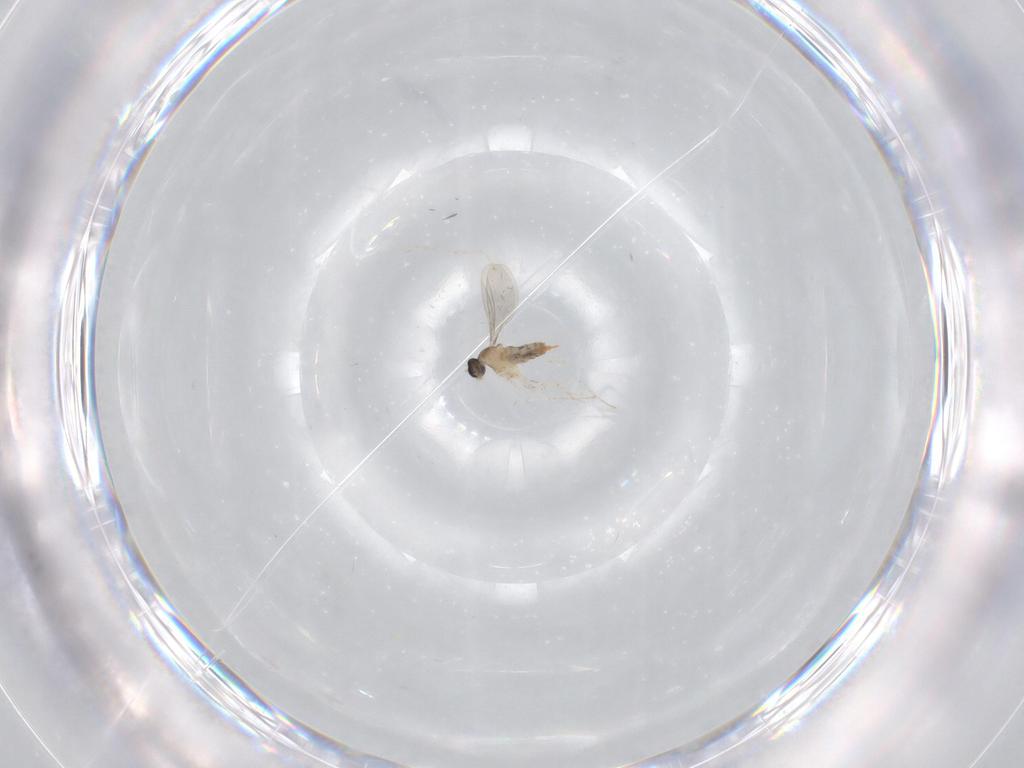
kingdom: Animalia
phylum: Arthropoda
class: Insecta
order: Diptera
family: Cecidomyiidae
